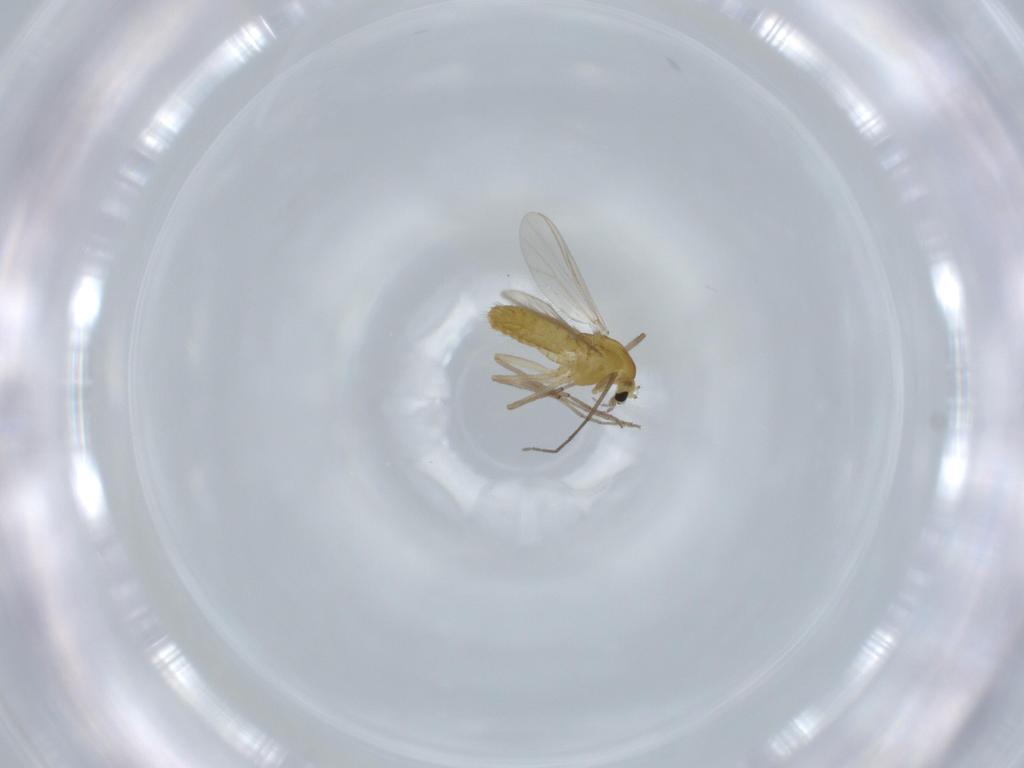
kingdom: Animalia
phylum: Arthropoda
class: Insecta
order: Diptera
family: Chironomidae
